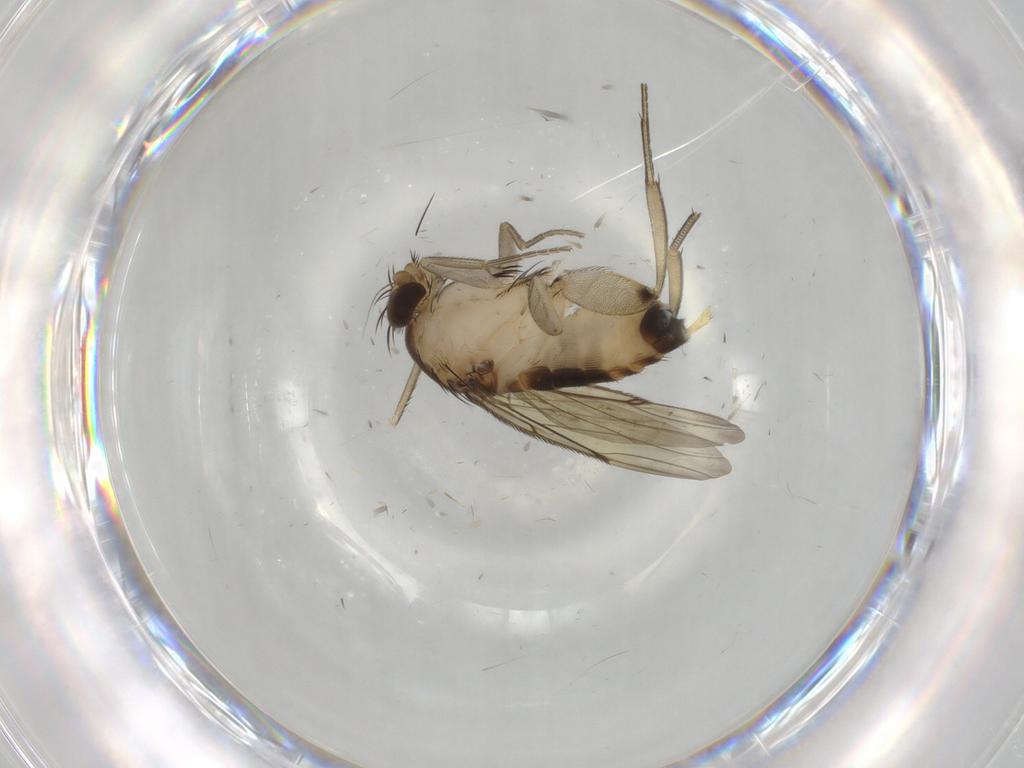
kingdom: Animalia
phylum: Arthropoda
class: Insecta
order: Diptera
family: Phoridae
